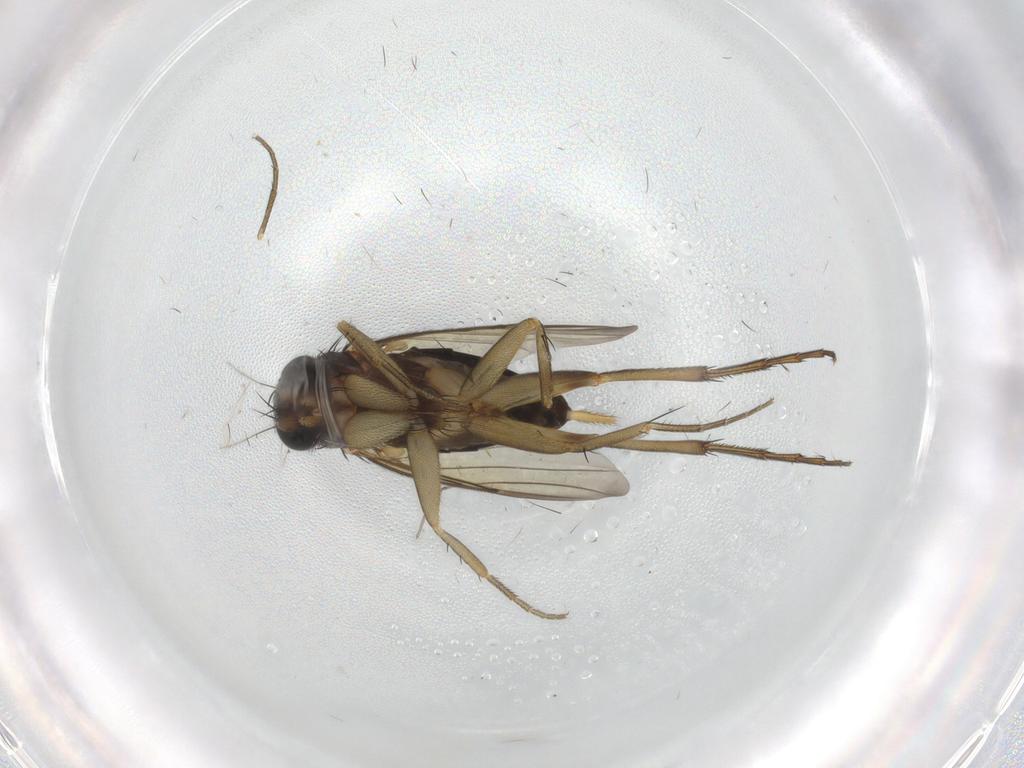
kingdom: Animalia
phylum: Arthropoda
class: Insecta
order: Diptera
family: Phoridae
